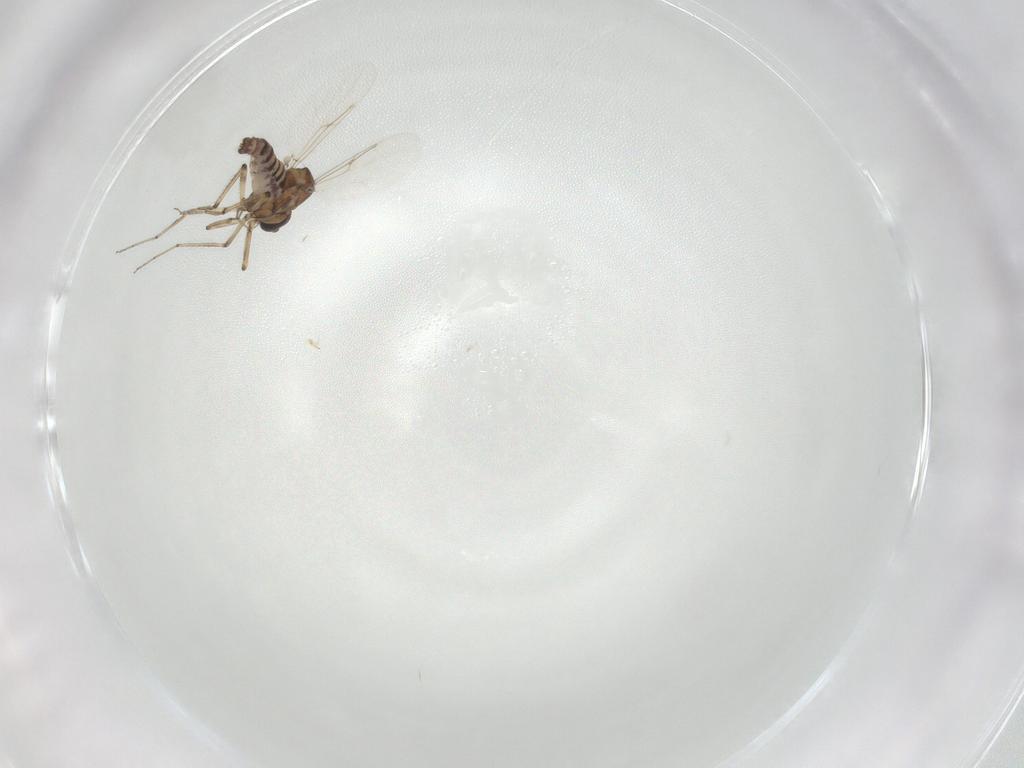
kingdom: Animalia
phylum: Arthropoda
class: Insecta
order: Diptera
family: Ceratopogonidae
